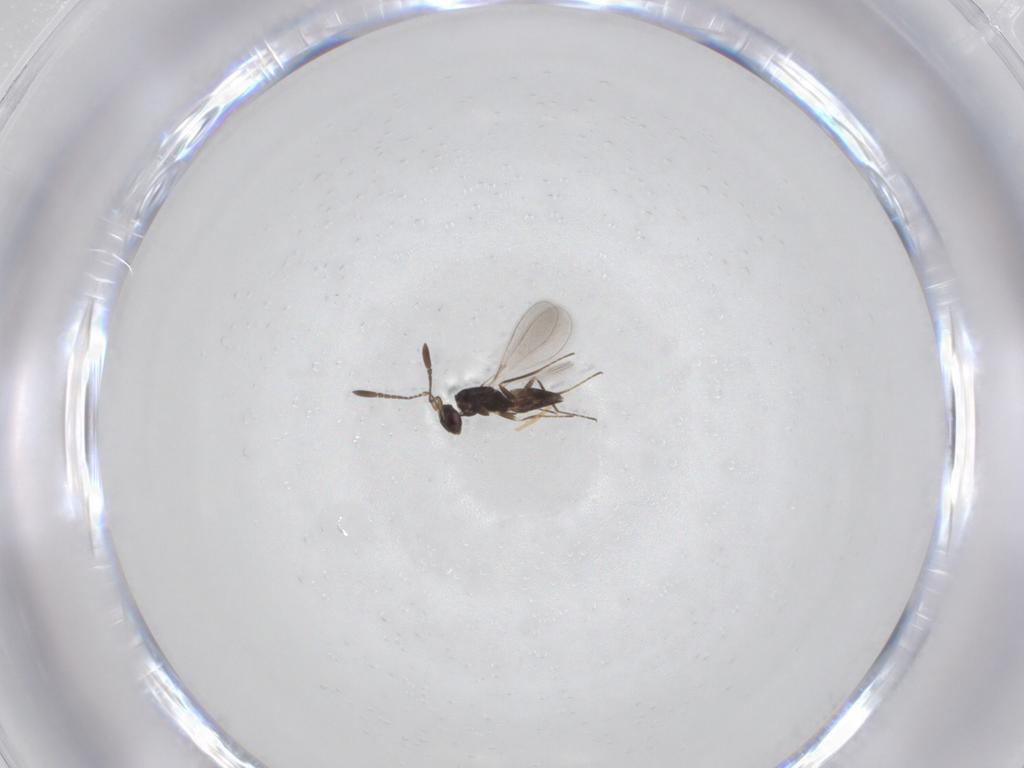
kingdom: Animalia
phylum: Arthropoda
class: Insecta
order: Hymenoptera
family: Mymaridae
